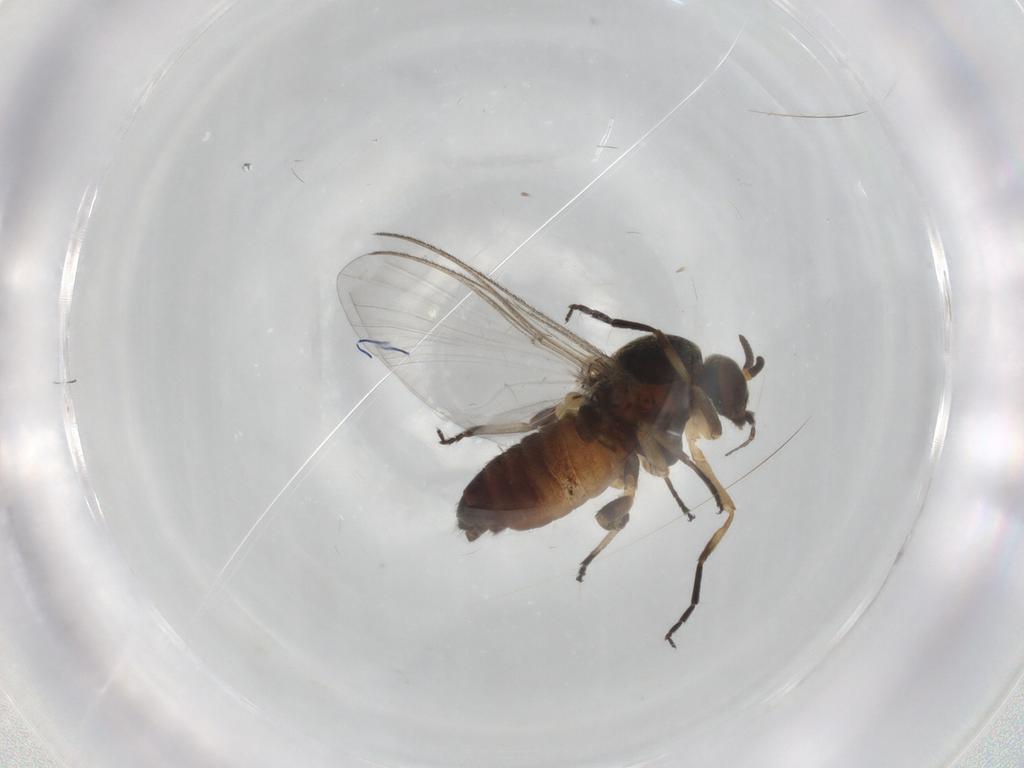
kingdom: Animalia
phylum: Arthropoda
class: Insecta
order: Diptera
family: Simuliidae
